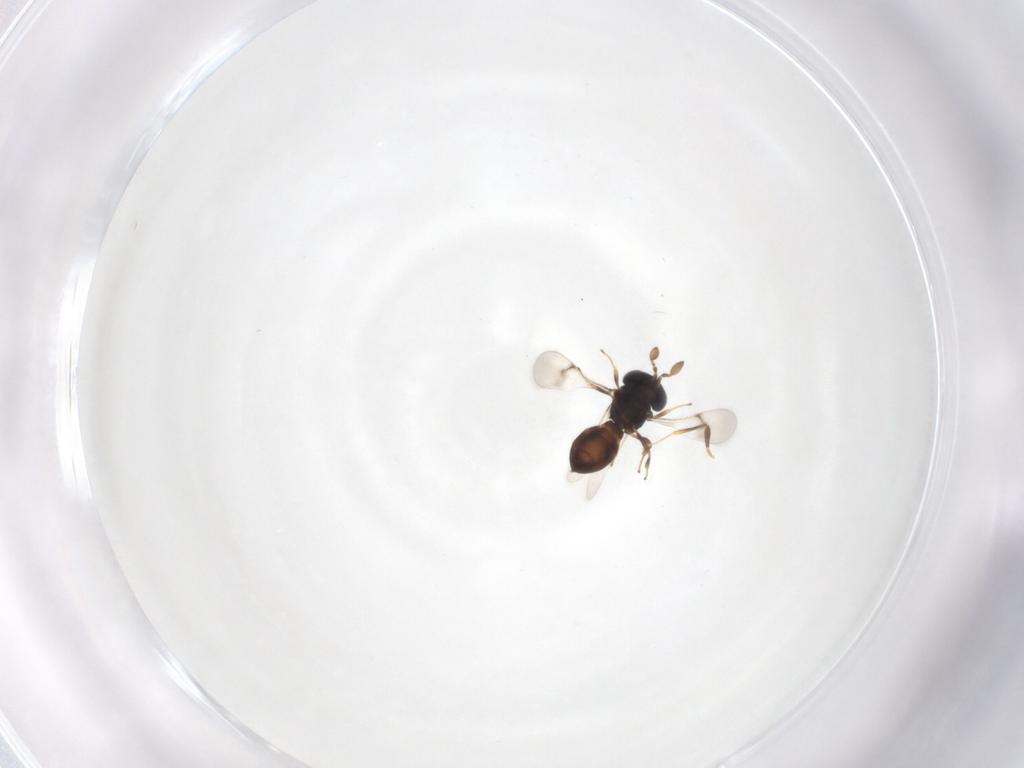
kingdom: Animalia
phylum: Arthropoda
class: Insecta
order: Hymenoptera
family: Scelionidae
